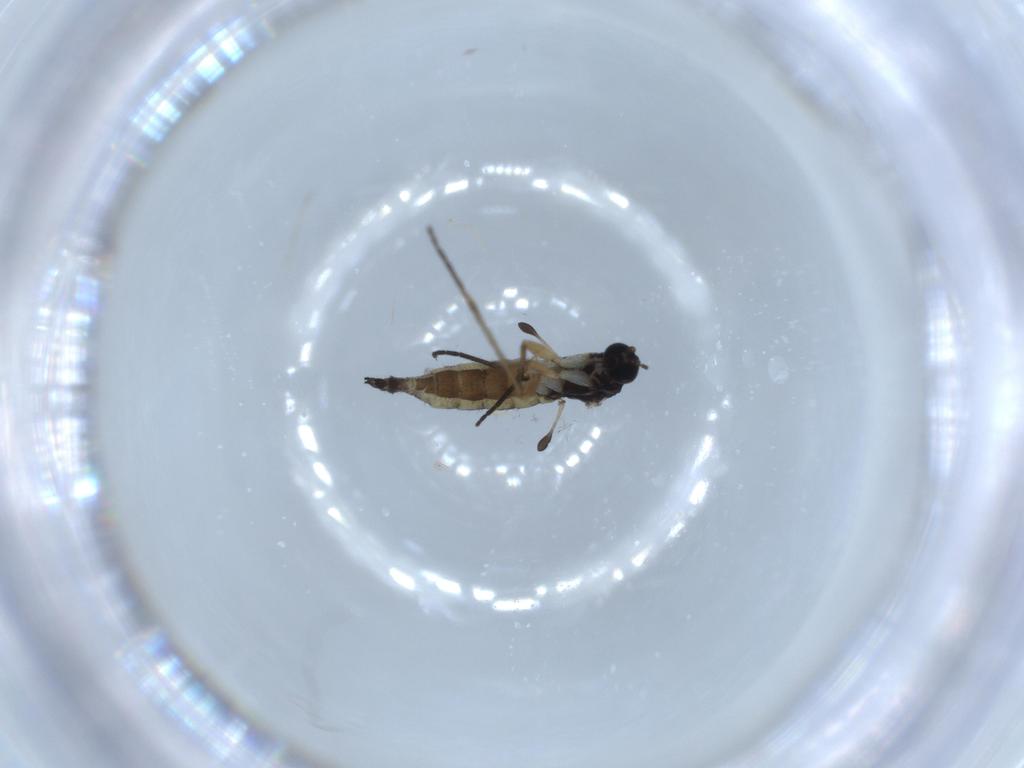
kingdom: Animalia
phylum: Arthropoda
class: Insecta
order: Diptera
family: Sciaridae
